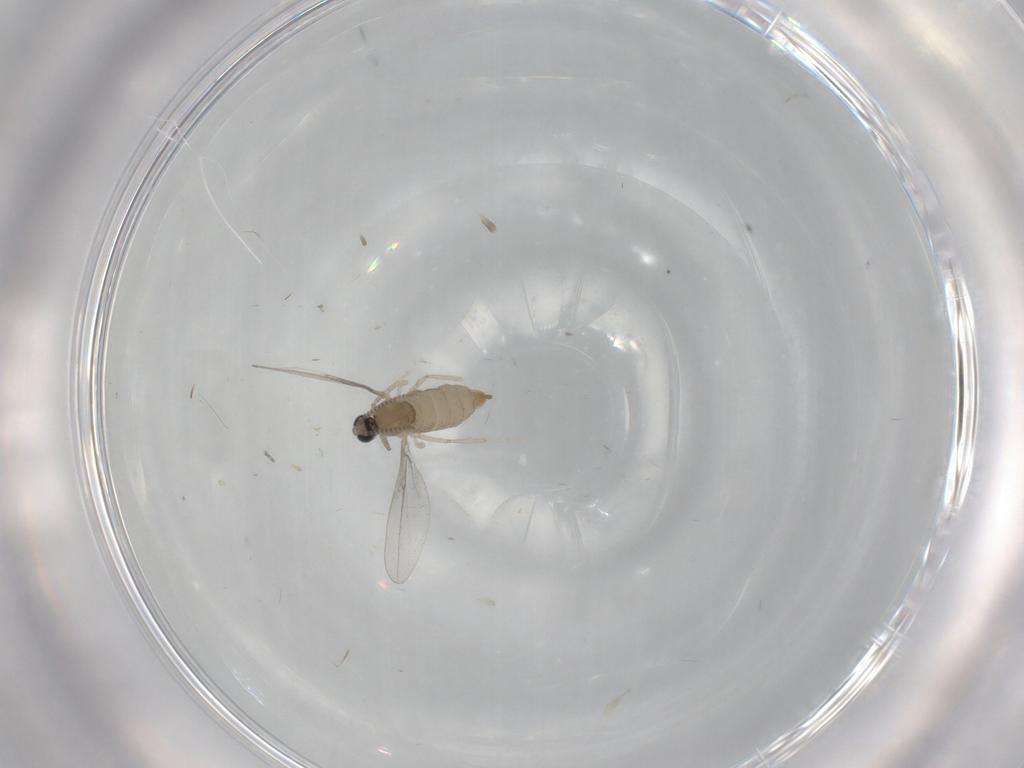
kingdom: Animalia
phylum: Arthropoda
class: Insecta
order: Diptera
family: Cecidomyiidae
